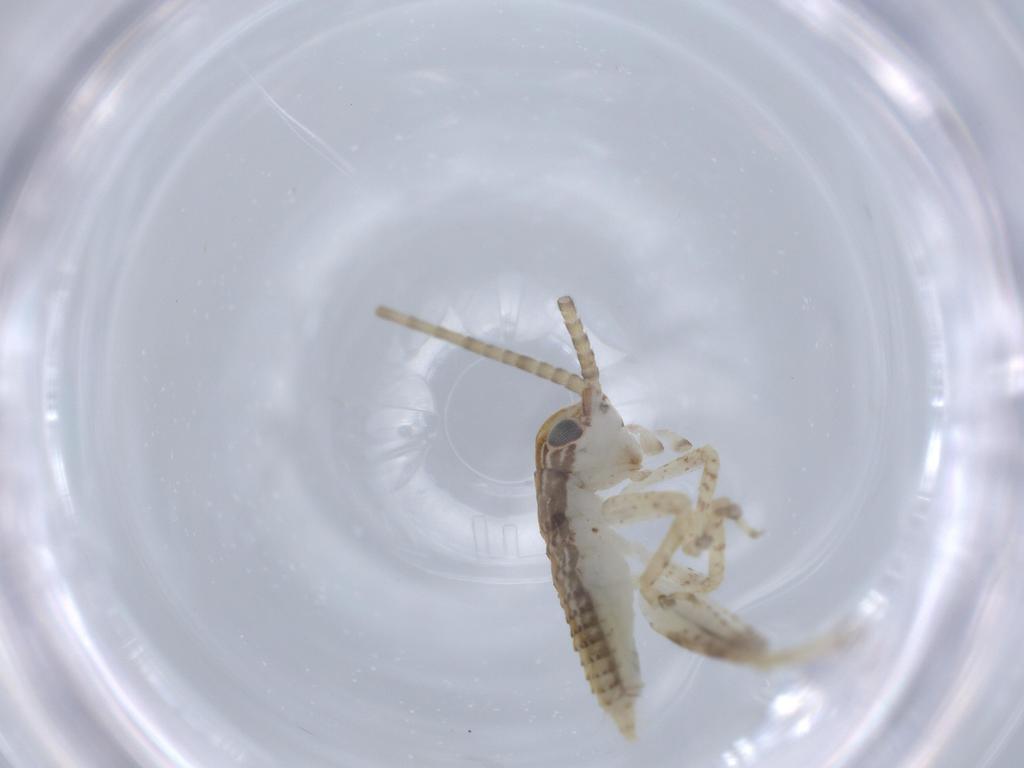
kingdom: Animalia
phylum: Arthropoda
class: Insecta
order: Orthoptera
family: Gryllidae
